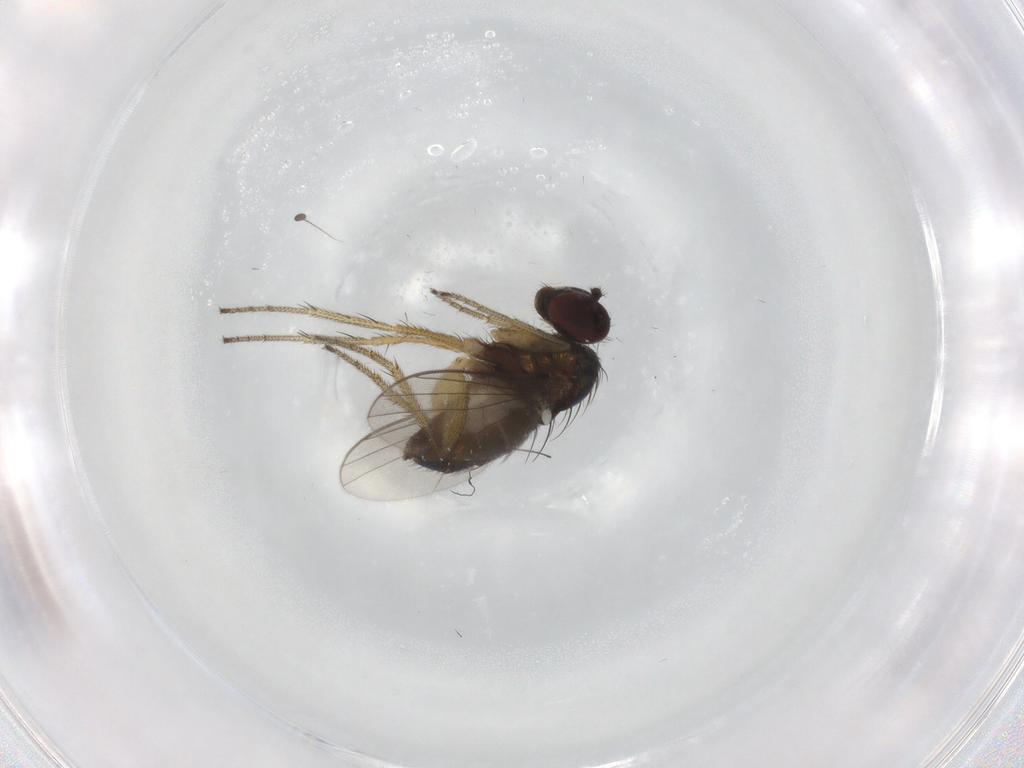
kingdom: Animalia
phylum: Arthropoda
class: Insecta
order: Diptera
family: Dolichopodidae
